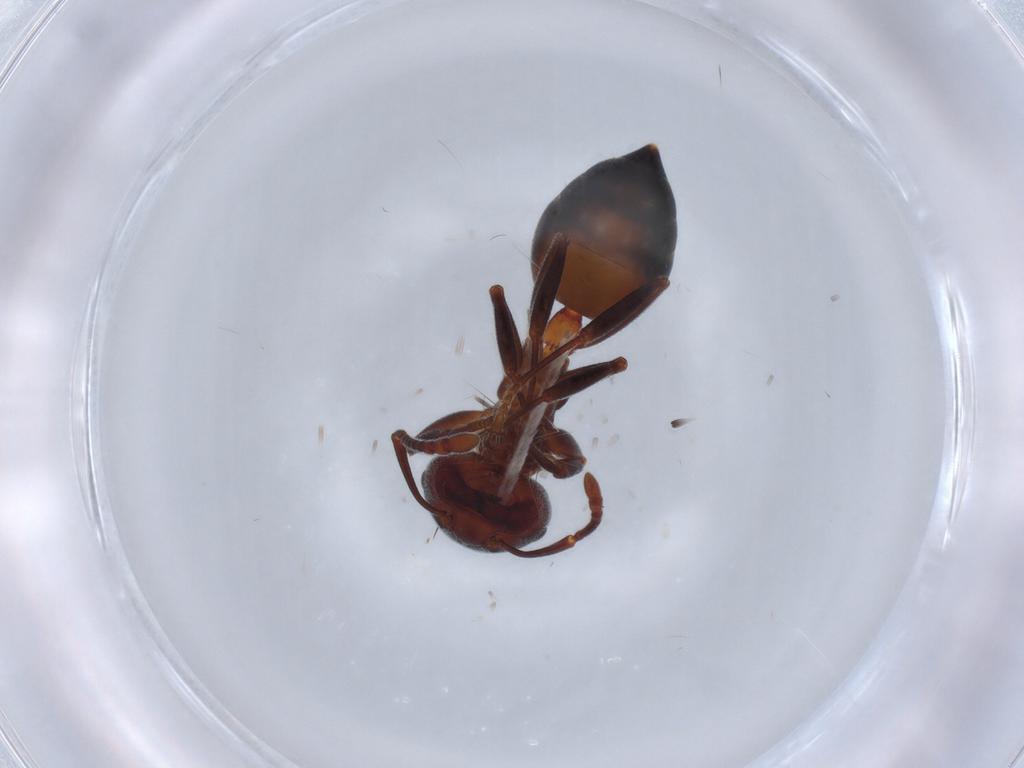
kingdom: Animalia
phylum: Arthropoda
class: Insecta
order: Hymenoptera
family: Formicidae
